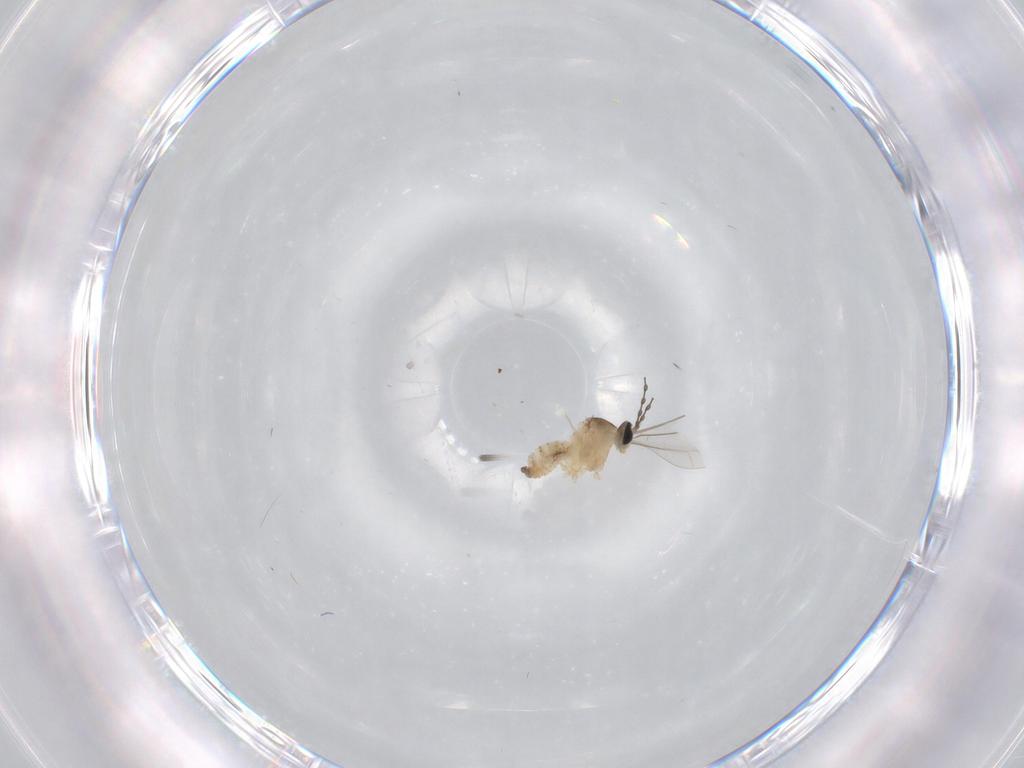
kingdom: Animalia
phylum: Arthropoda
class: Insecta
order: Diptera
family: Cecidomyiidae
